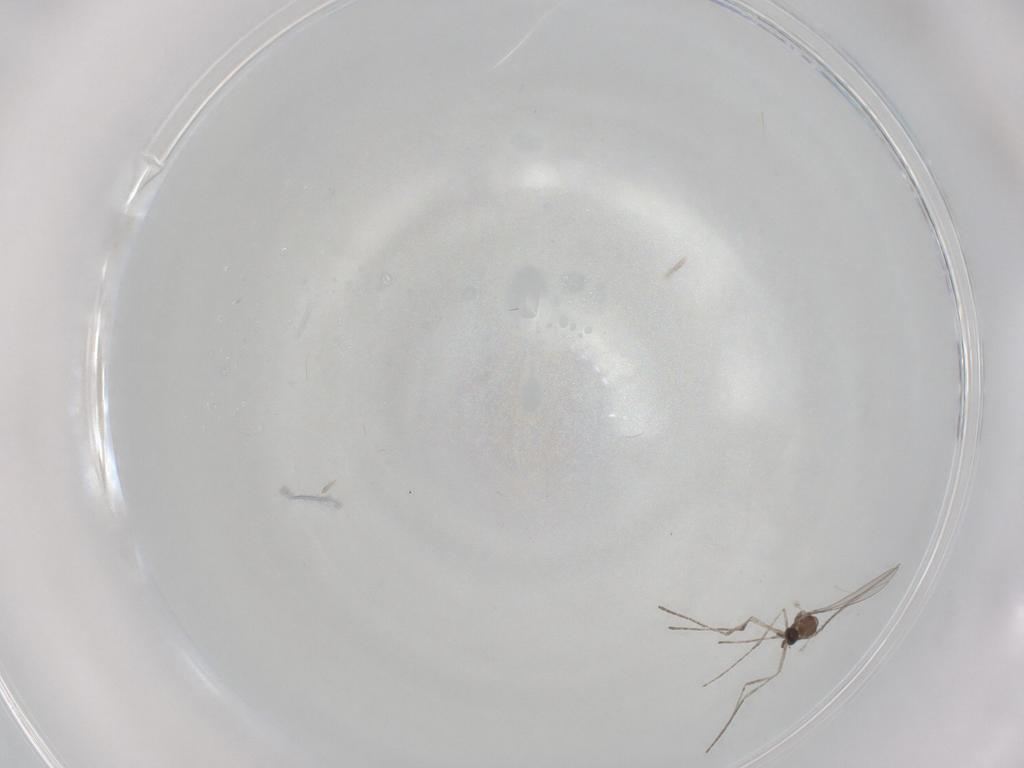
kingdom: Animalia
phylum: Arthropoda
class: Insecta
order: Diptera
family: Cecidomyiidae
